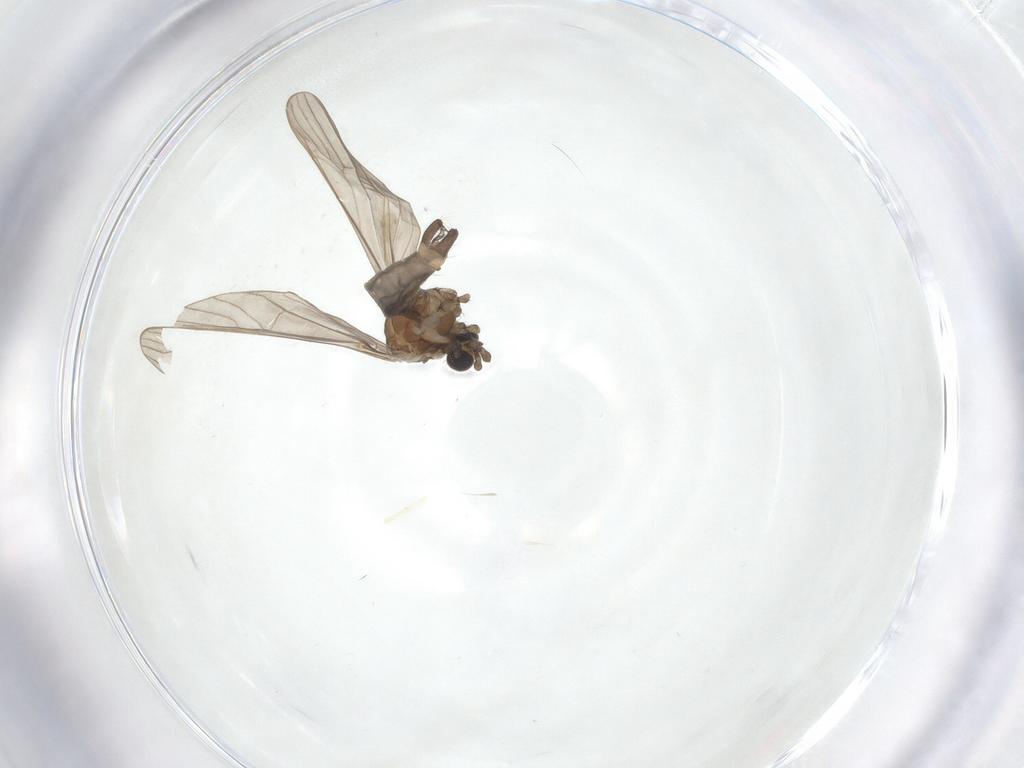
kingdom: Animalia
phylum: Arthropoda
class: Insecta
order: Diptera
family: Limoniidae
